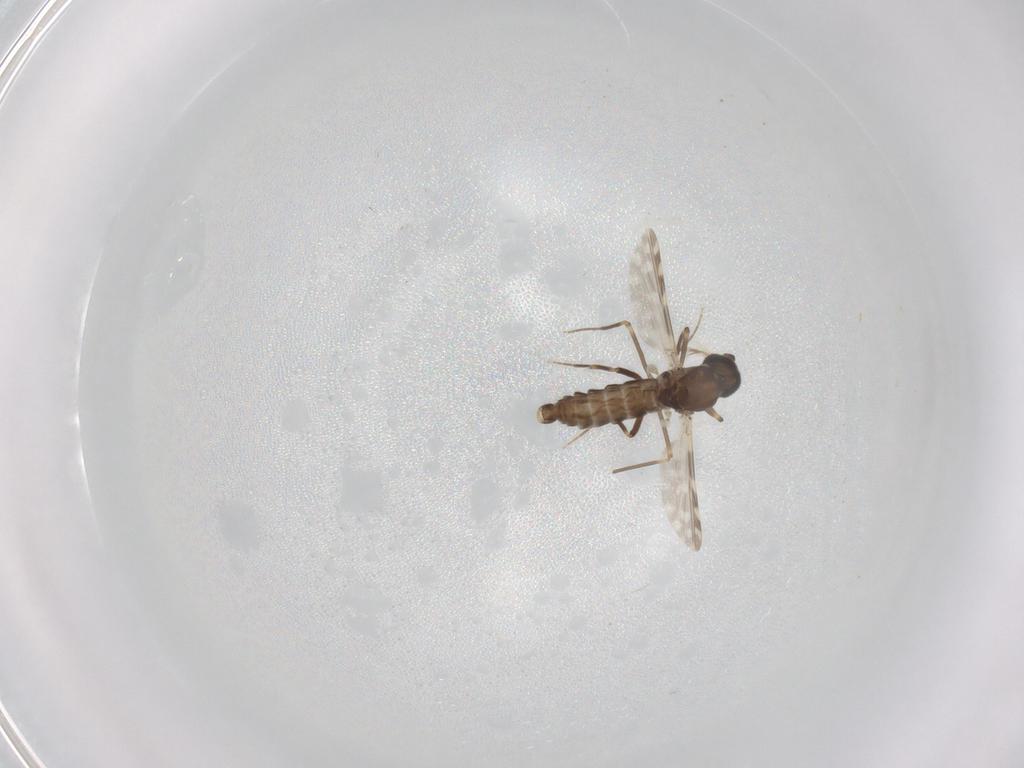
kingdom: Animalia
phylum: Arthropoda
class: Insecta
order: Diptera
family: Ceratopogonidae
